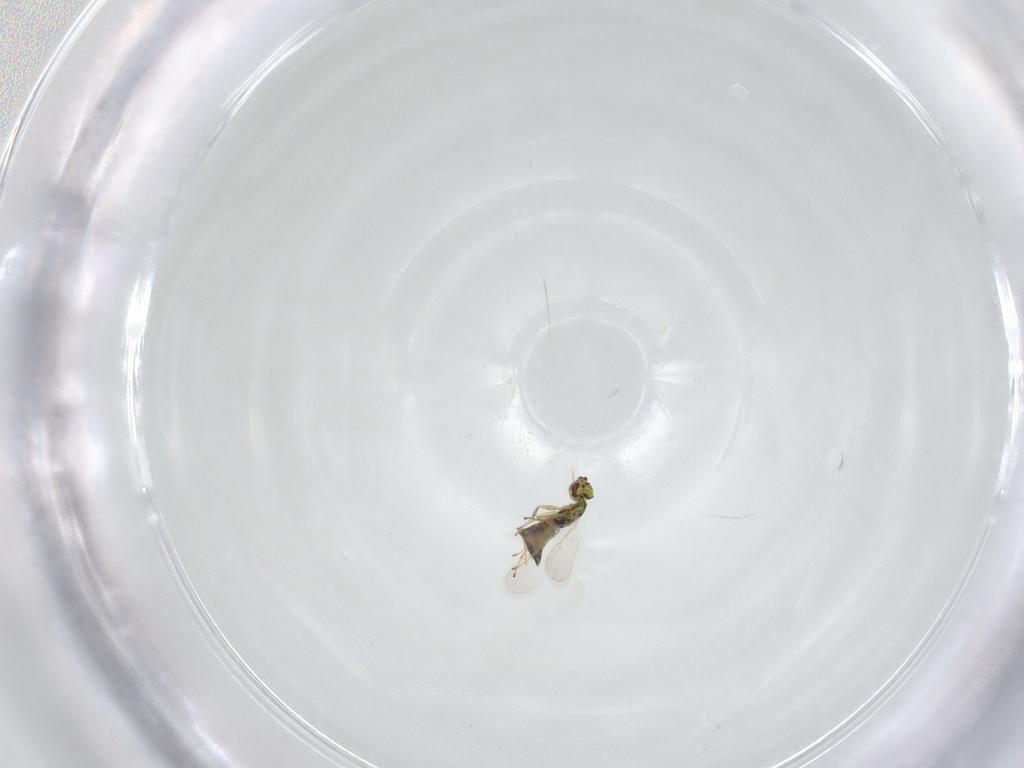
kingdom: Animalia
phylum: Arthropoda
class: Insecta
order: Hymenoptera
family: Eulophidae
